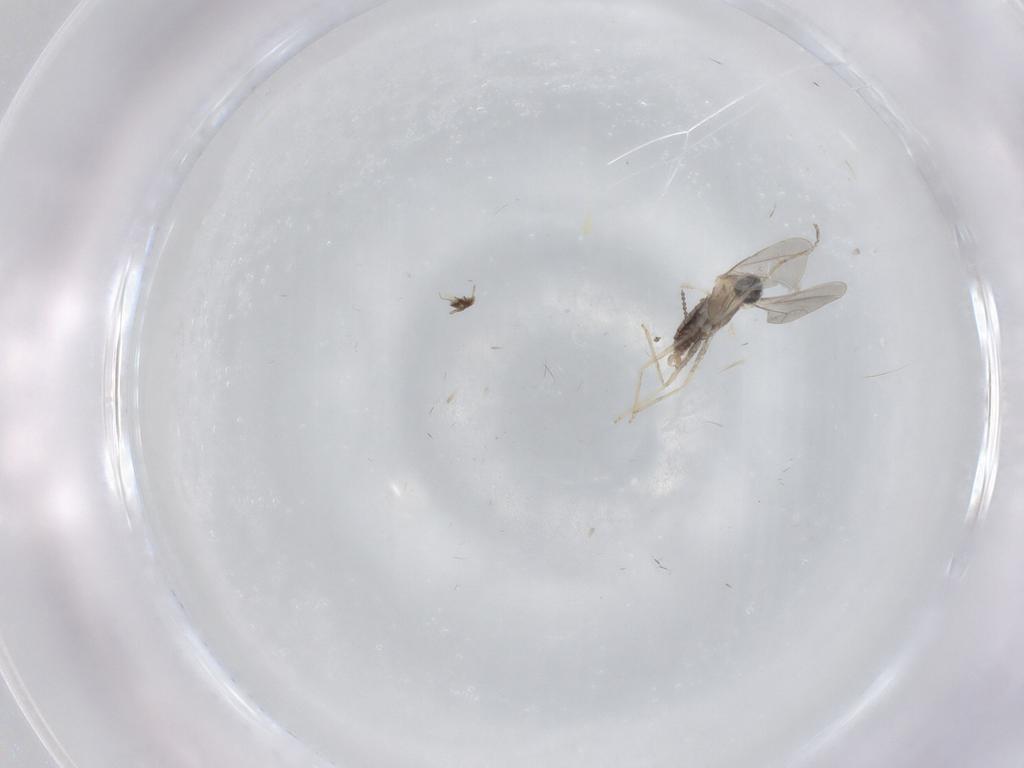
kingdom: Animalia
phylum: Arthropoda
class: Insecta
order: Diptera
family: Cecidomyiidae
